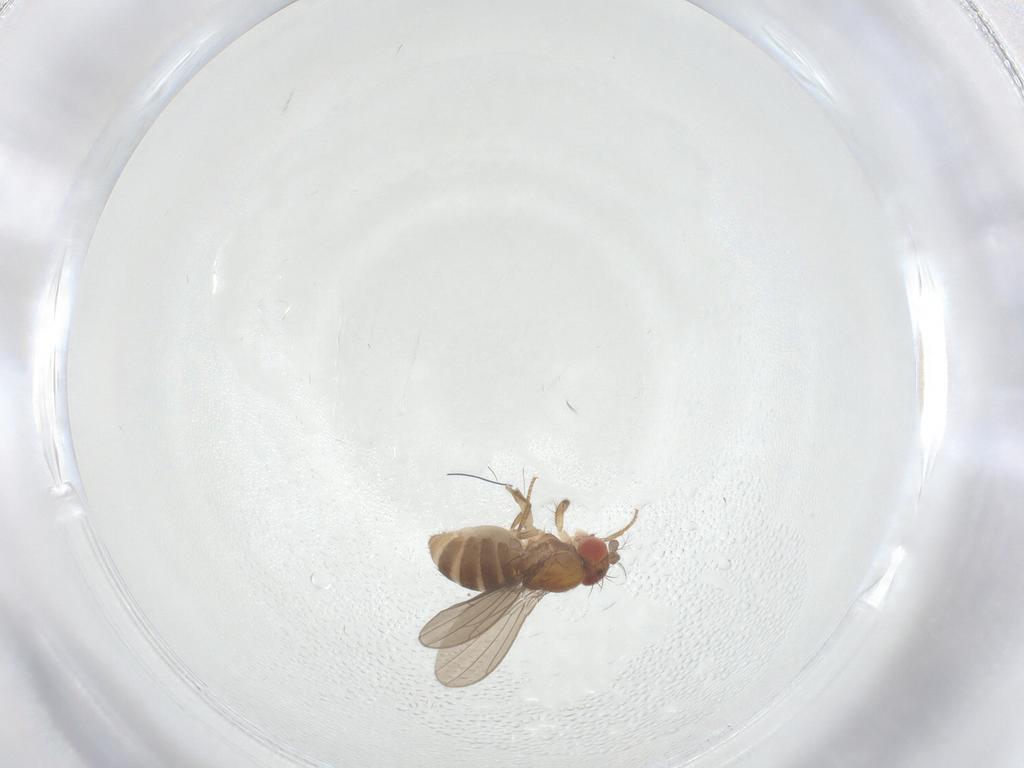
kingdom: Animalia
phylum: Arthropoda
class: Insecta
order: Diptera
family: Drosophilidae
